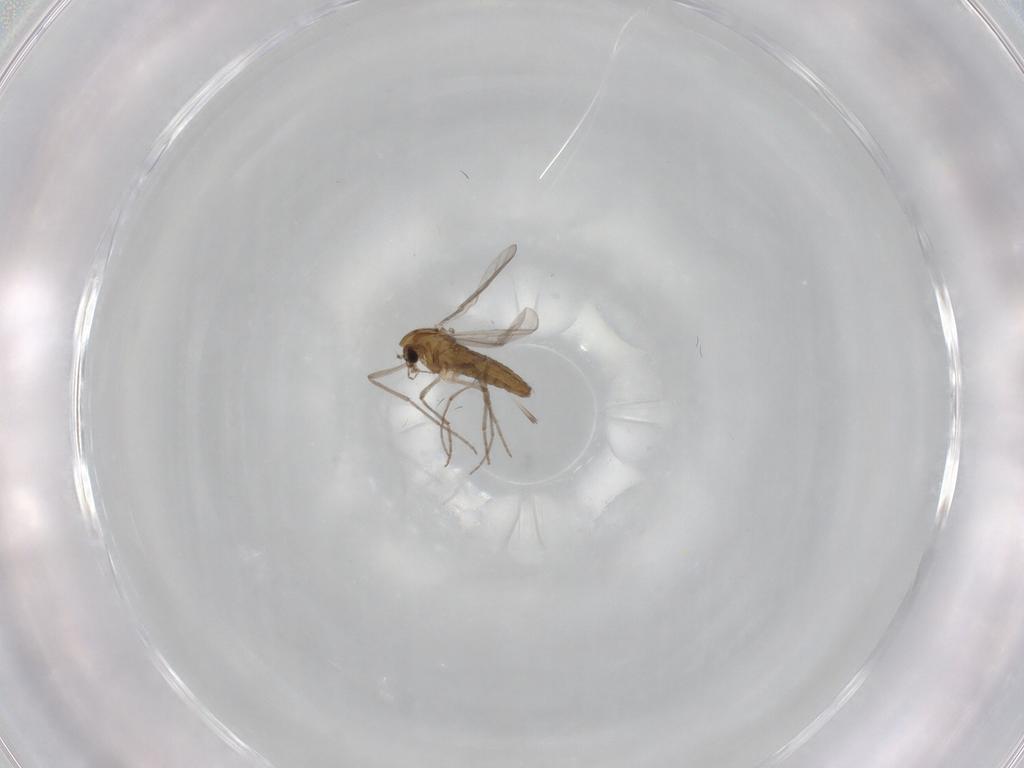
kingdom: Animalia
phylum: Arthropoda
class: Insecta
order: Diptera
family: Chironomidae
